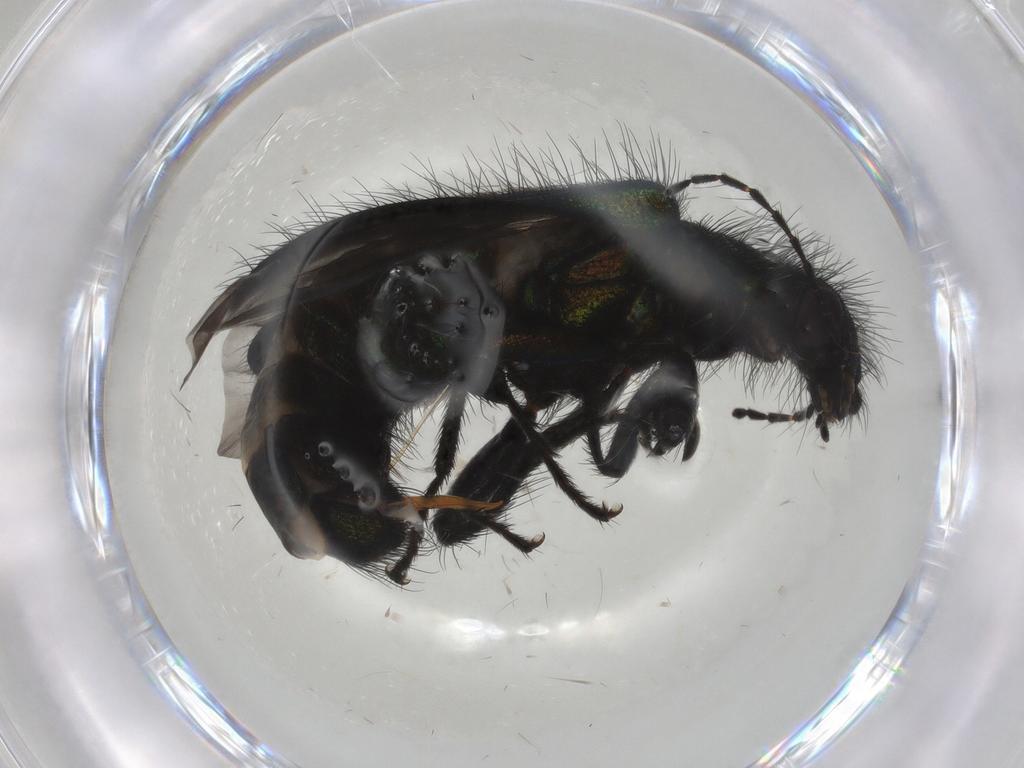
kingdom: Animalia
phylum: Arthropoda
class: Insecta
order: Coleoptera
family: Melyridae
